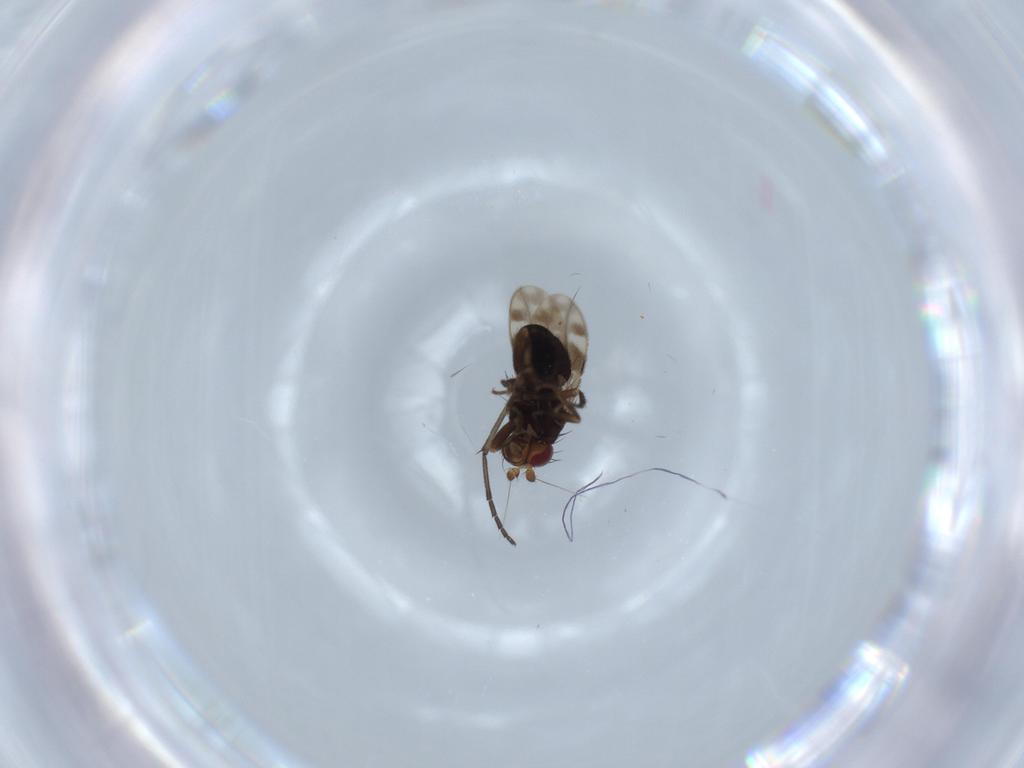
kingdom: Animalia
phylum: Arthropoda
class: Insecta
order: Diptera
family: Sphaeroceridae
